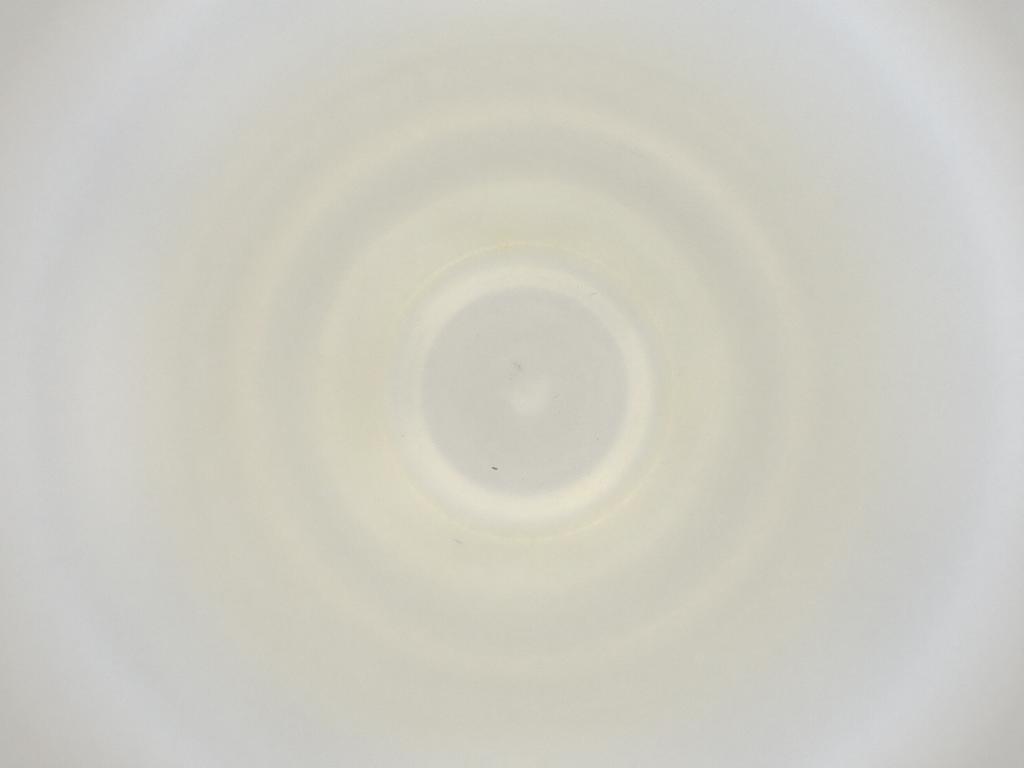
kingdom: Animalia
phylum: Arthropoda
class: Insecta
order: Diptera
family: Cecidomyiidae
